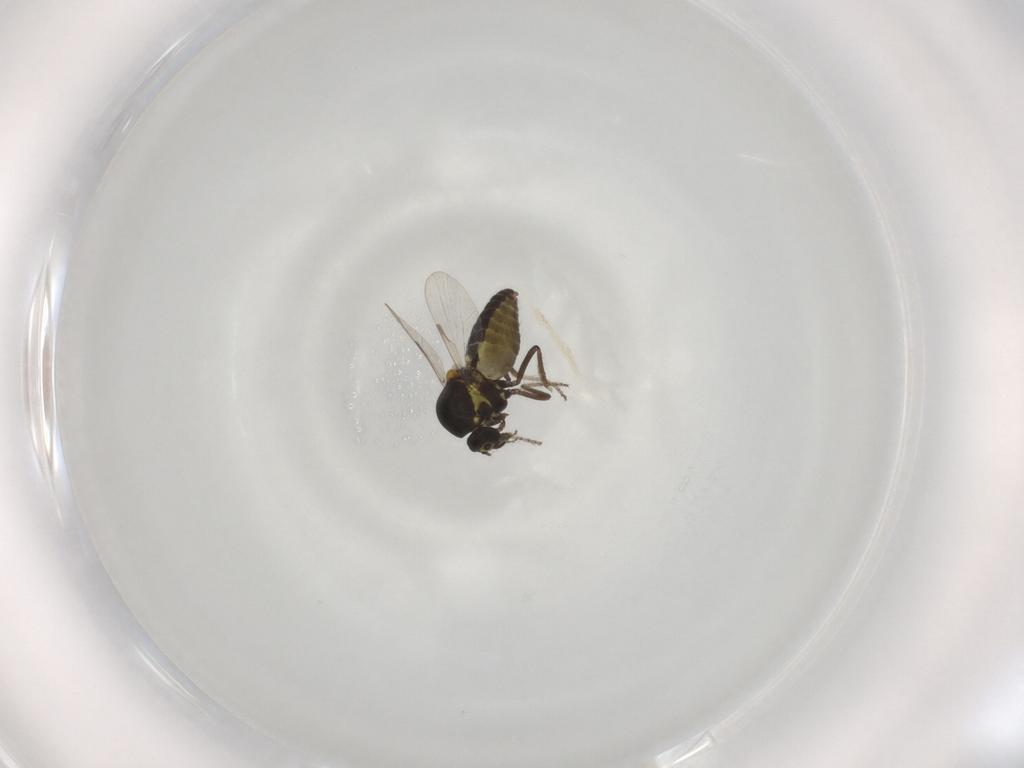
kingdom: Animalia
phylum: Arthropoda
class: Insecta
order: Diptera
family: Ceratopogonidae
